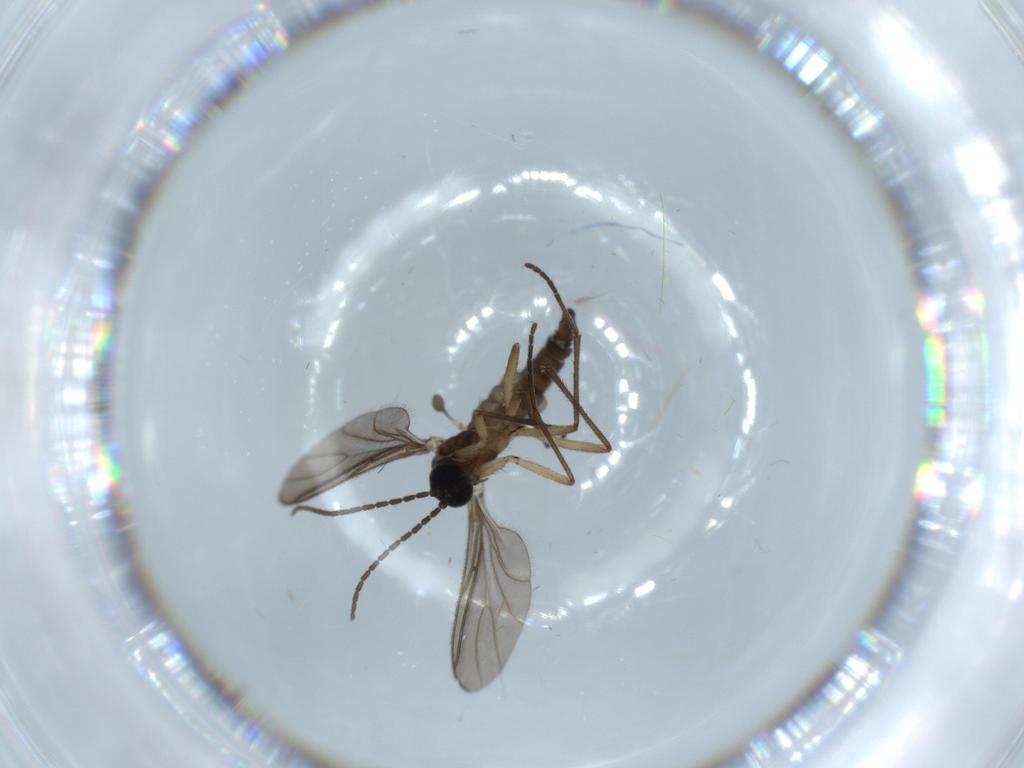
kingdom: Animalia
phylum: Arthropoda
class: Insecta
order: Diptera
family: Sciaridae
